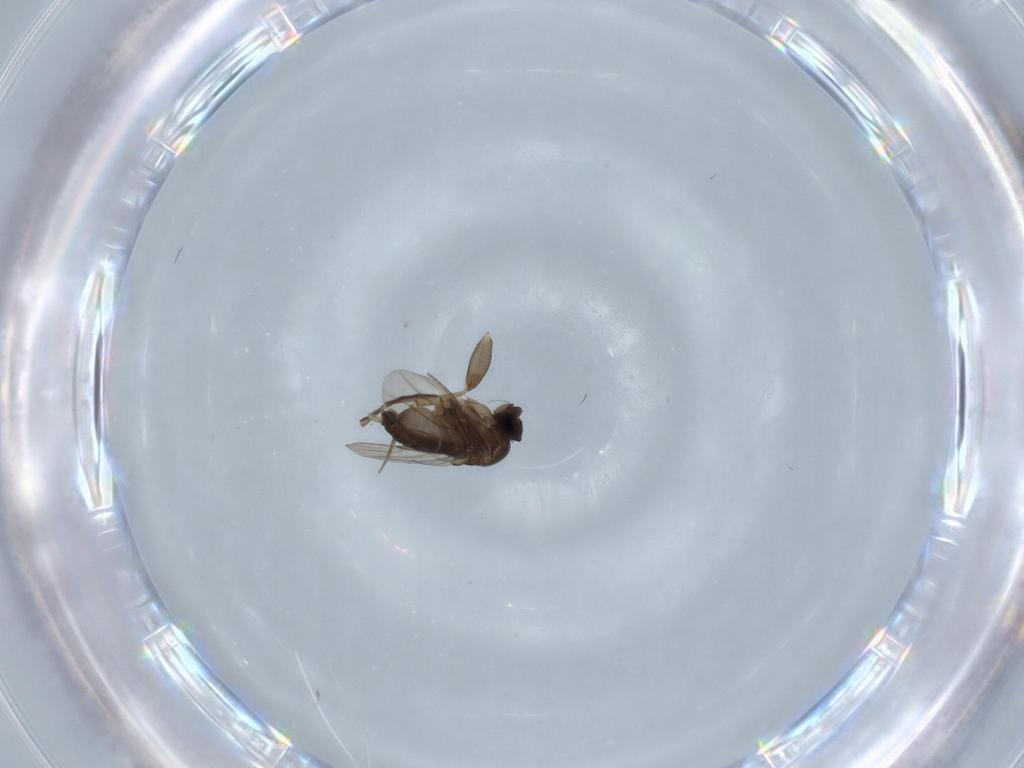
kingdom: Animalia
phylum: Arthropoda
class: Insecta
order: Diptera
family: Phoridae
